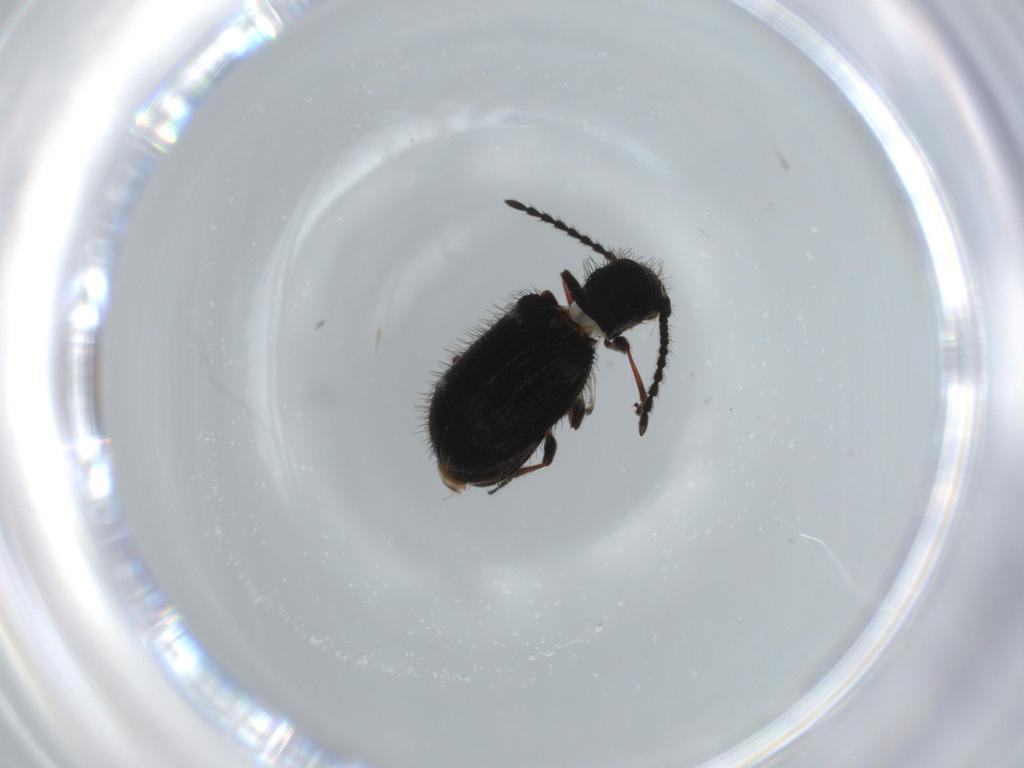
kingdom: Animalia
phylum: Arthropoda
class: Insecta
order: Coleoptera
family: Ptinidae
